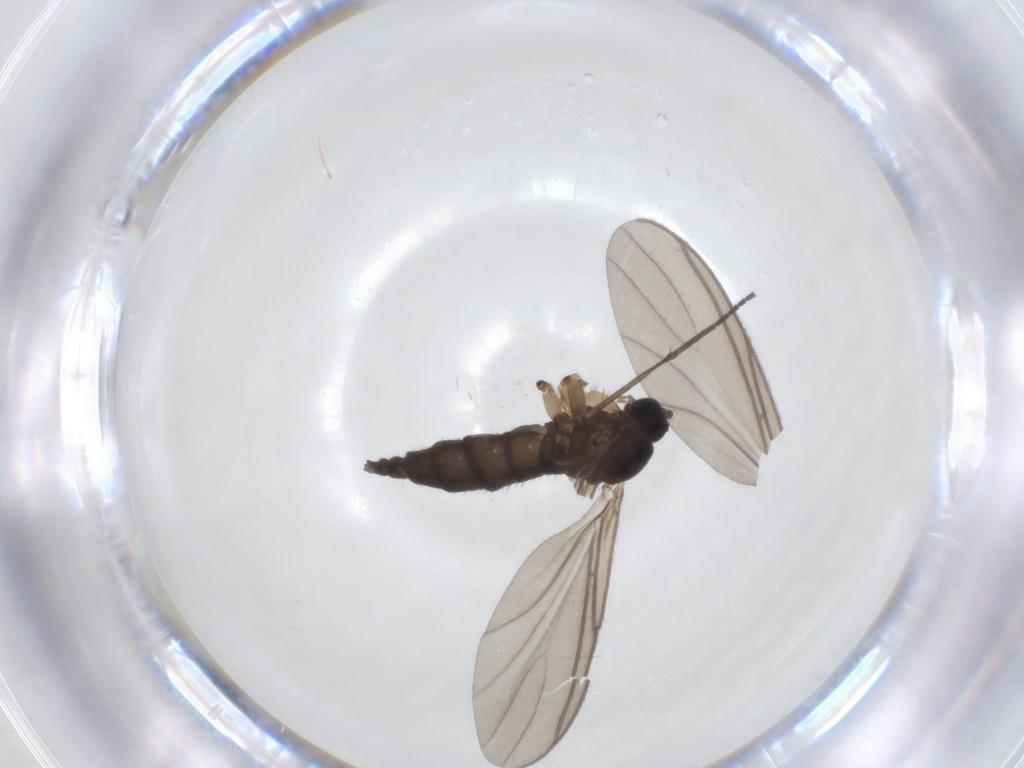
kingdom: Animalia
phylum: Arthropoda
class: Insecta
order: Diptera
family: Sciaridae
